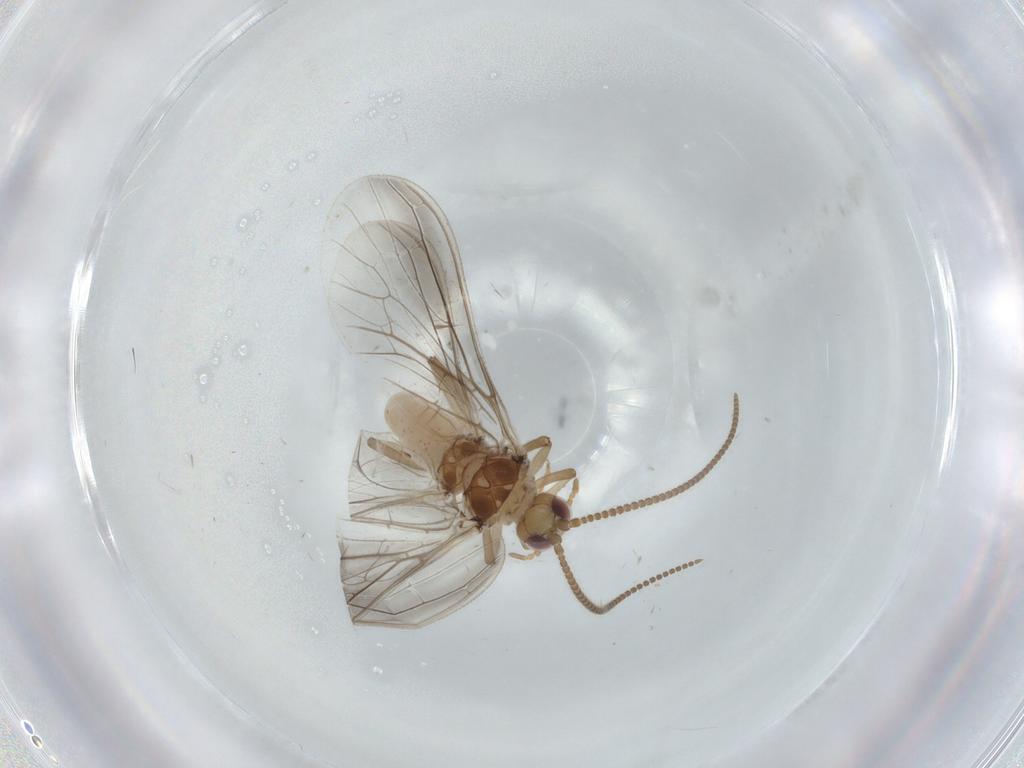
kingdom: Animalia
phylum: Arthropoda
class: Insecta
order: Neuroptera
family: Coniopterygidae
